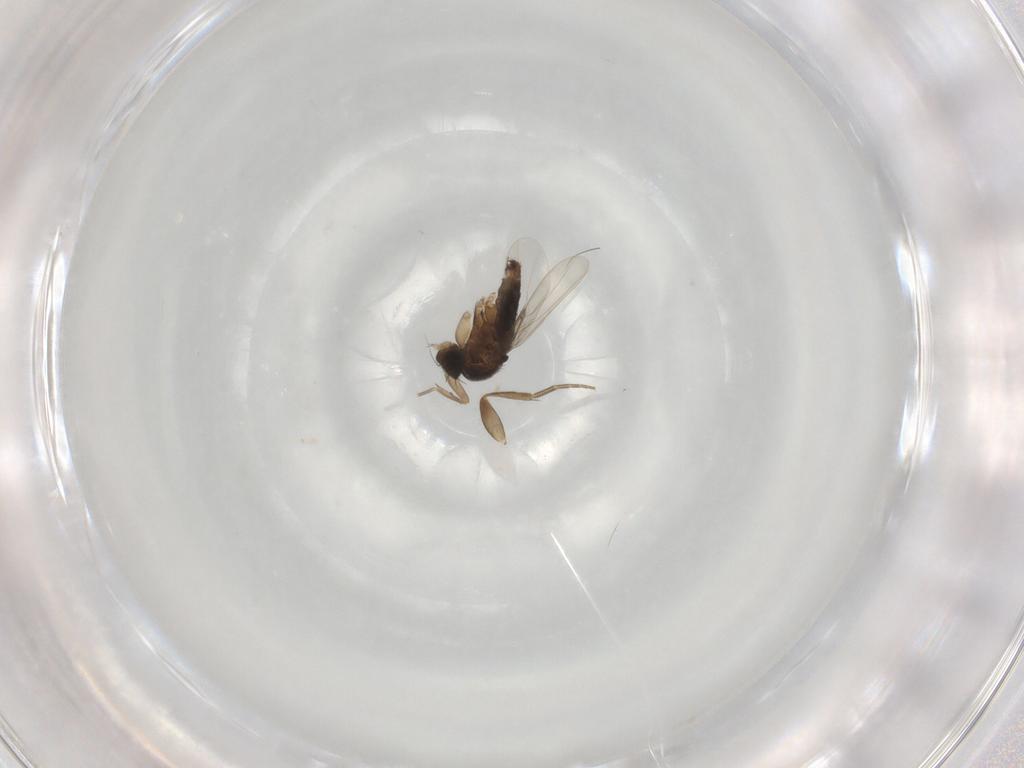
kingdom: Animalia
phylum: Arthropoda
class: Insecta
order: Diptera
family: Phoridae
